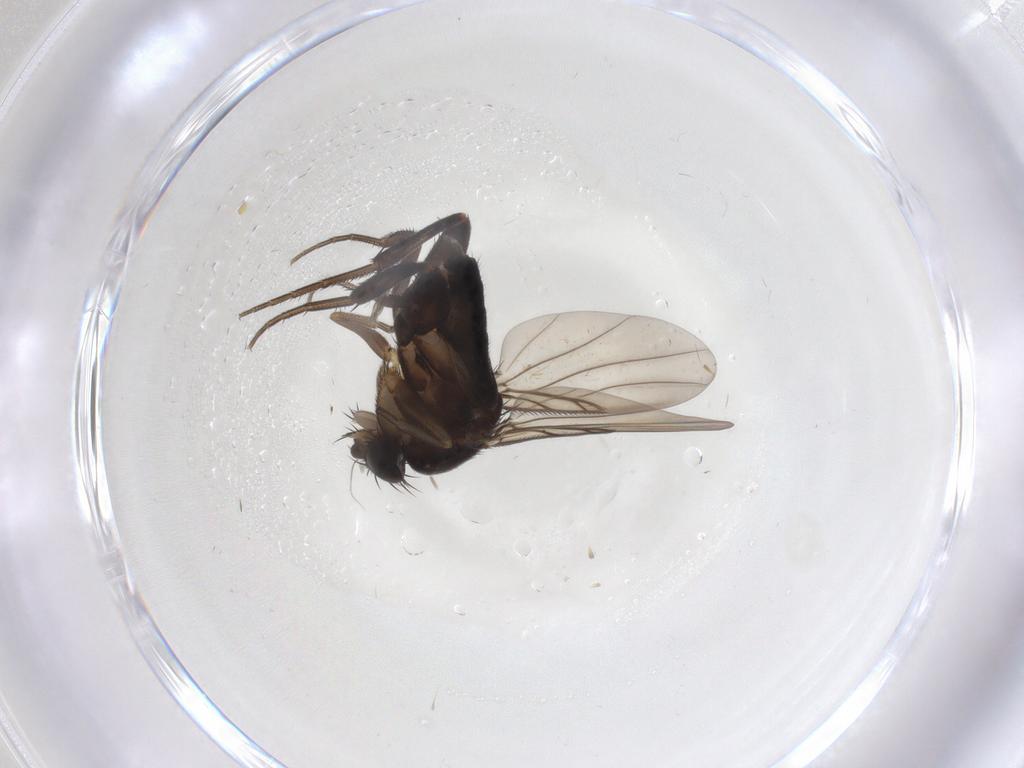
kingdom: Animalia
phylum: Arthropoda
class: Insecta
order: Diptera
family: Phoridae
